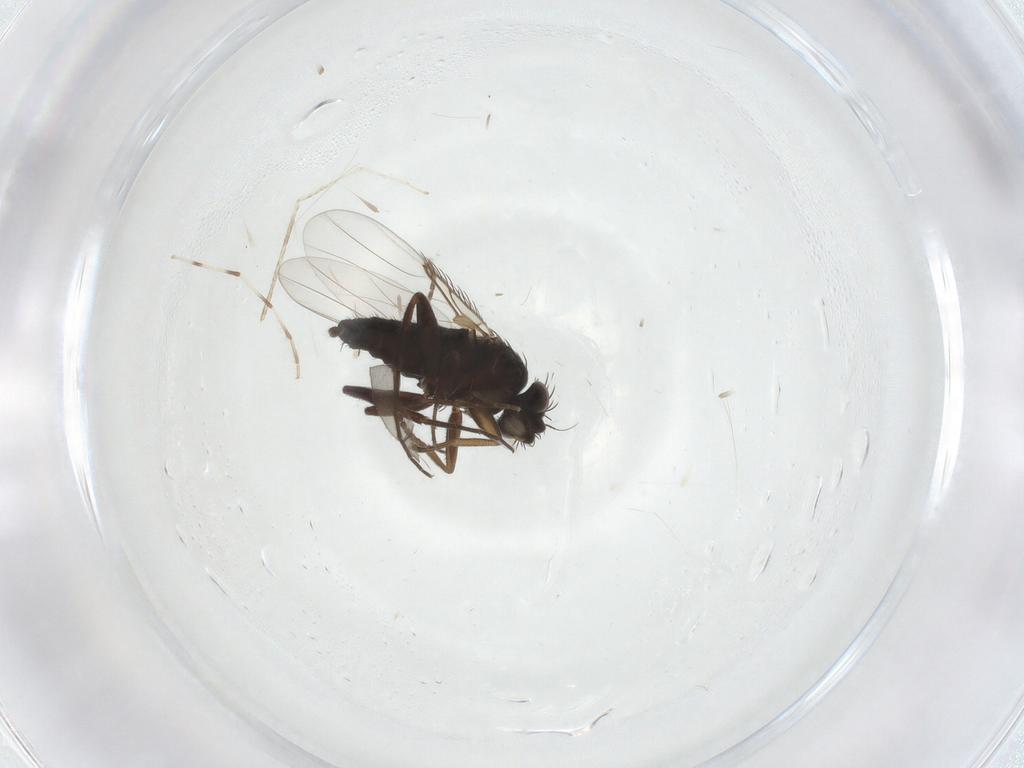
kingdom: Animalia
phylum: Arthropoda
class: Insecta
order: Diptera
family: Phoridae
